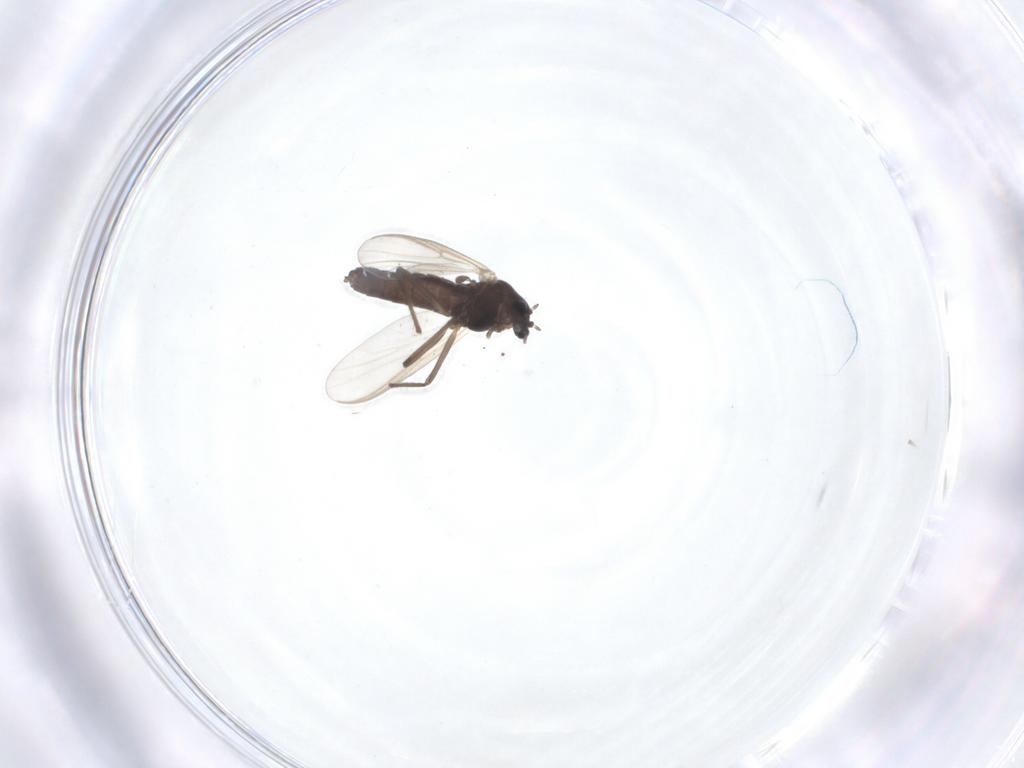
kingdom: Animalia
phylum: Arthropoda
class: Insecta
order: Diptera
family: Chironomidae
